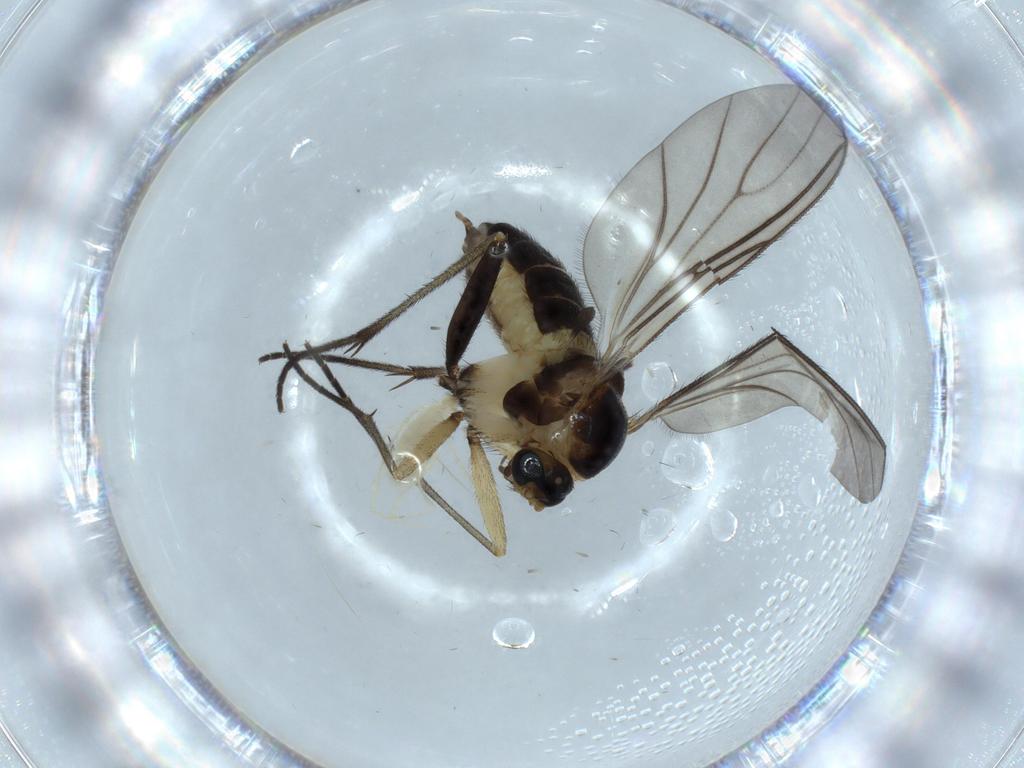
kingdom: Animalia
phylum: Arthropoda
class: Insecta
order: Diptera
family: Sciaridae
